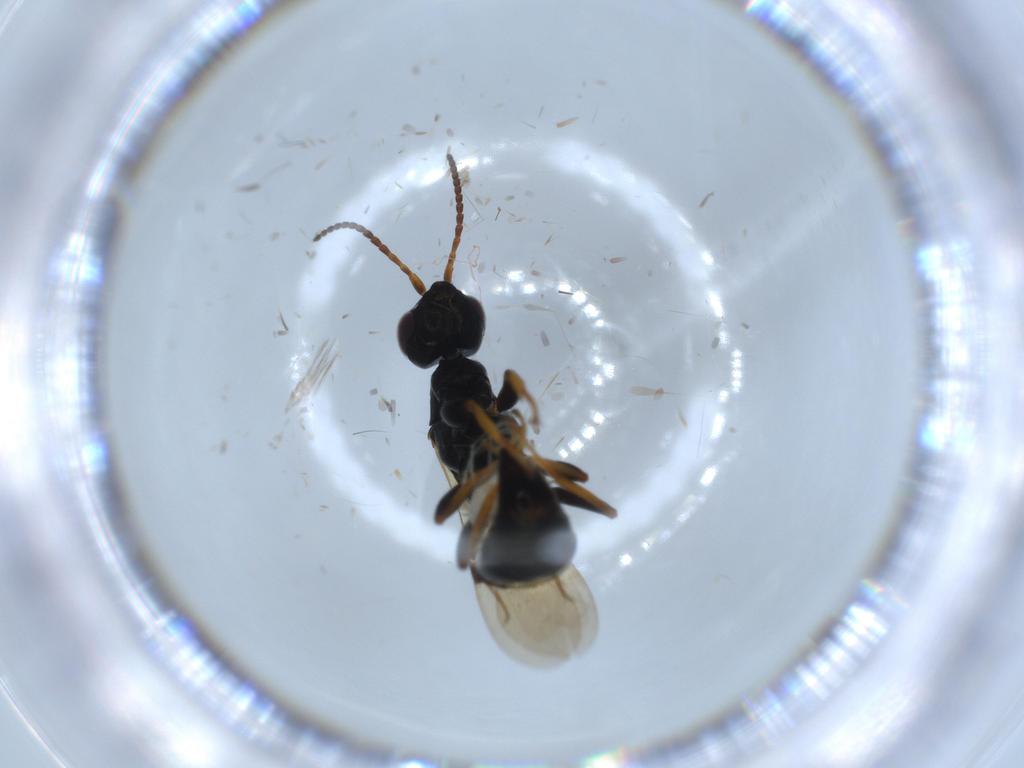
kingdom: Animalia
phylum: Arthropoda
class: Insecta
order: Hymenoptera
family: Bethylidae
